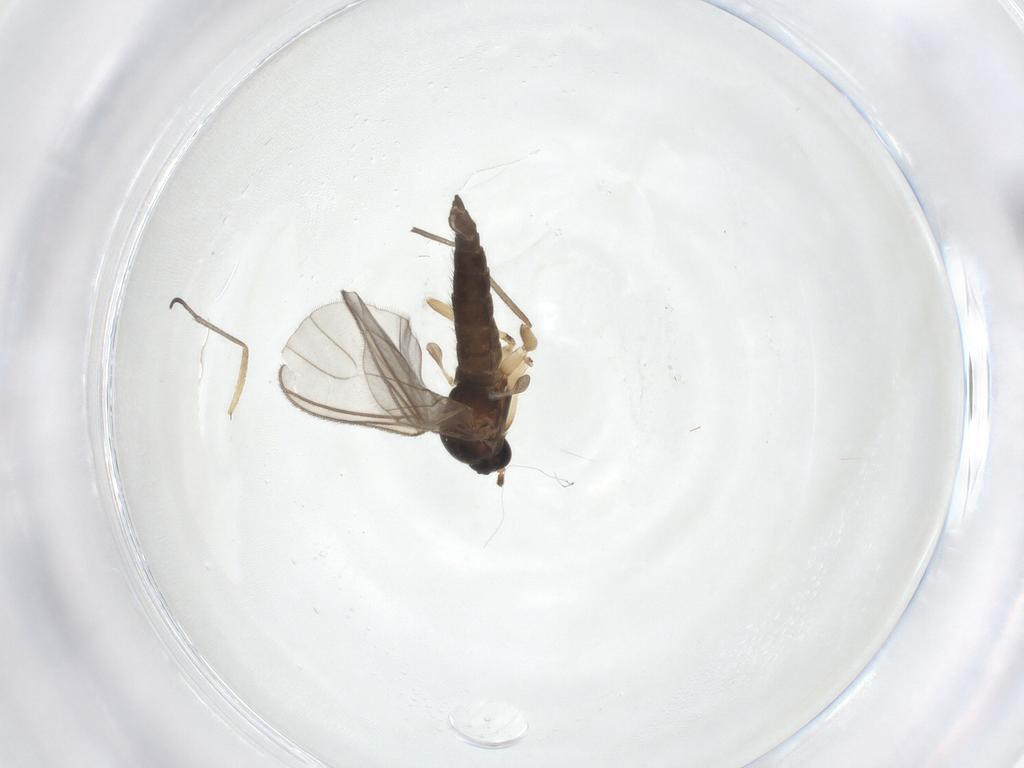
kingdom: Animalia
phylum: Arthropoda
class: Insecta
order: Diptera
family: Sciaridae
